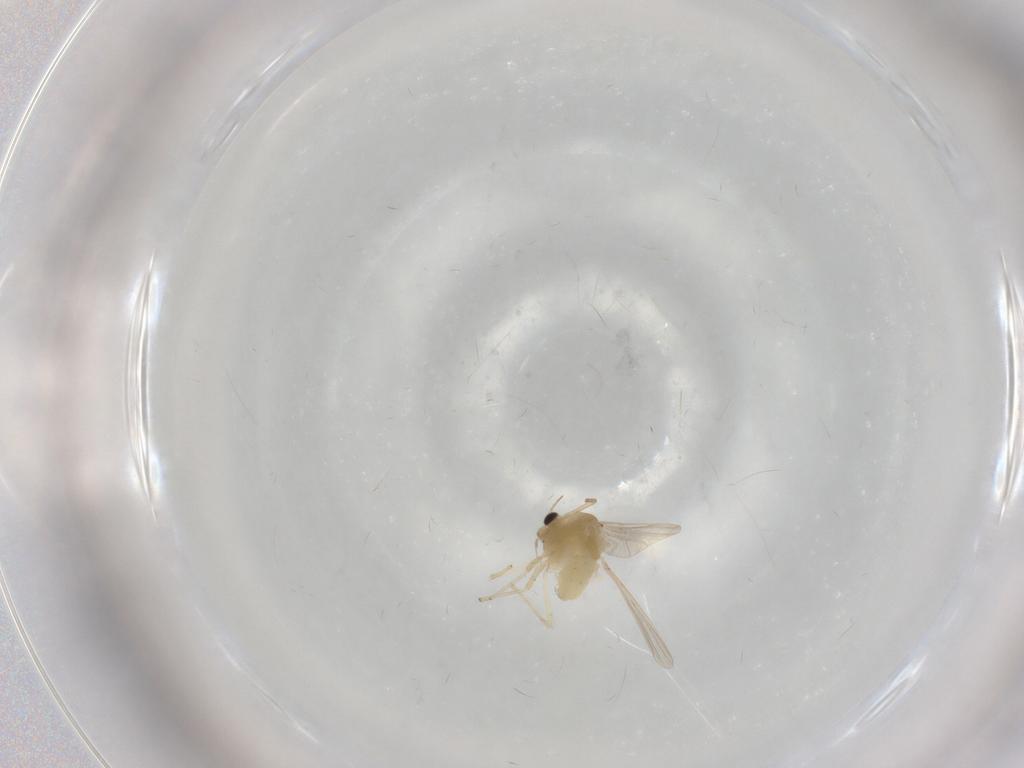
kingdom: Animalia
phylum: Arthropoda
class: Insecta
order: Diptera
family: Chironomidae
